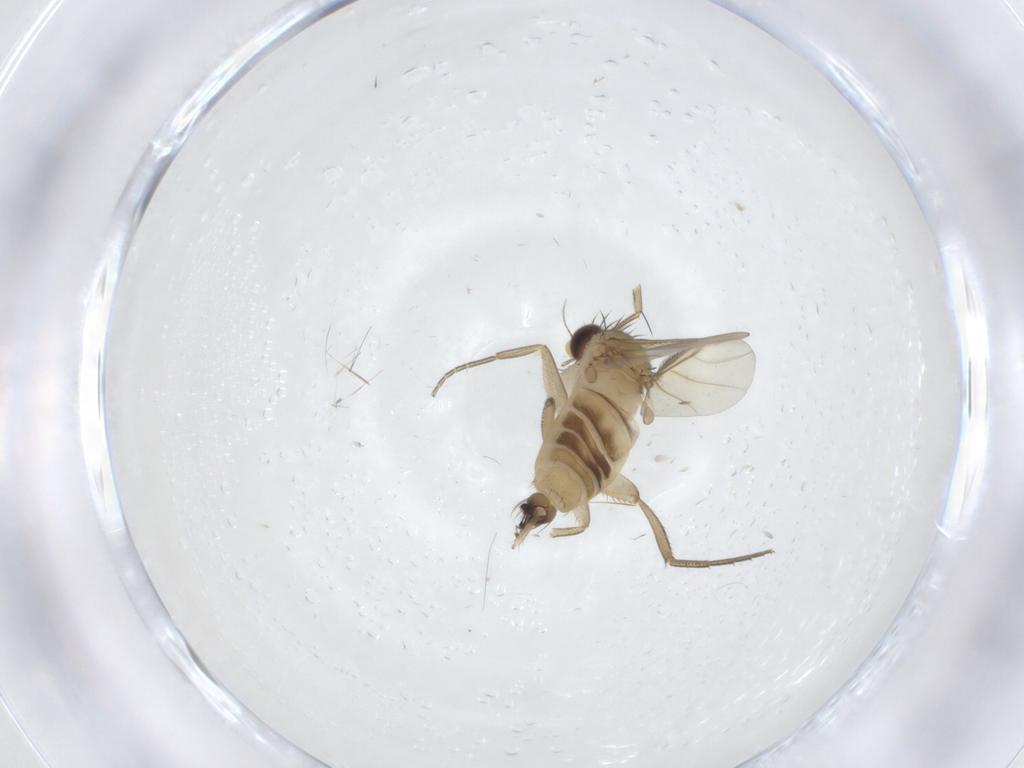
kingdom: Animalia
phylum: Arthropoda
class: Insecta
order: Diptera
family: Phoridae
